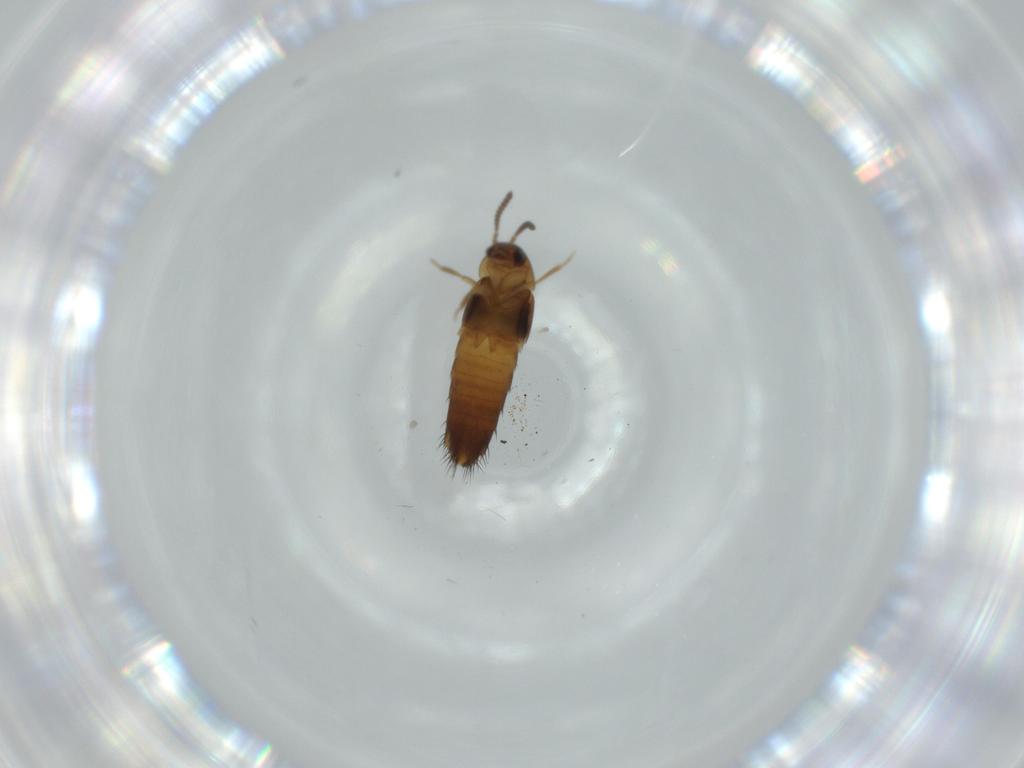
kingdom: Animalia
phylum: Arthropoda
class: Insecta
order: Coleoptera
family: Staphylinidae
